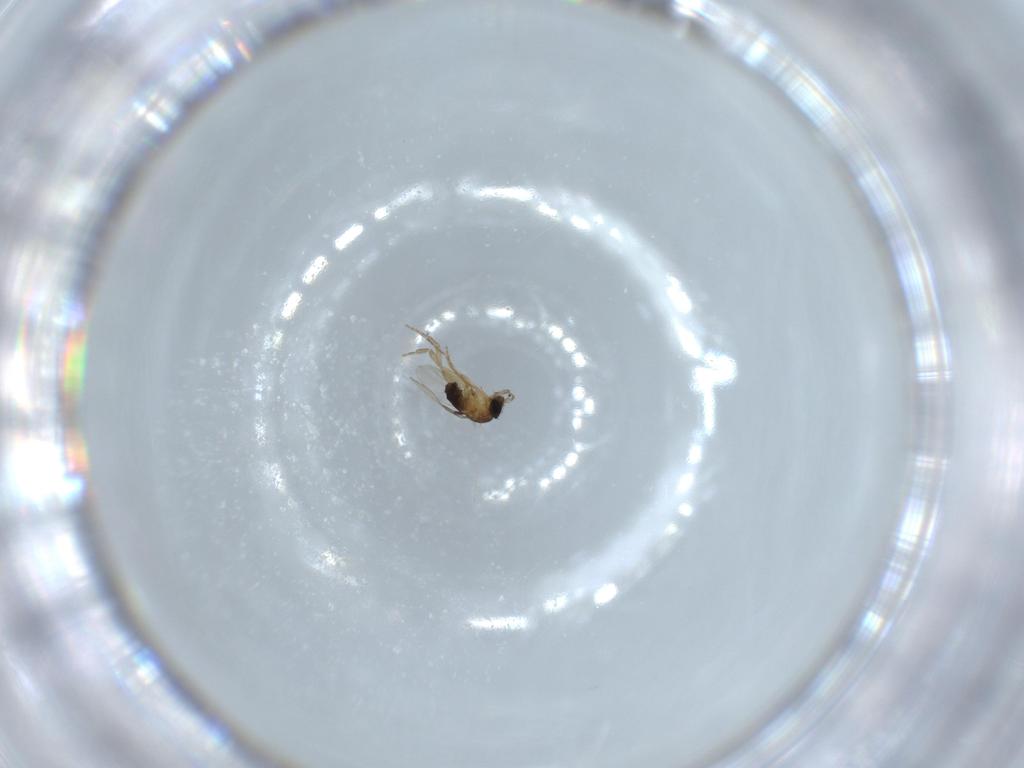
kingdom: Animalia
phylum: Arthropoda
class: Insecta
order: Diptera
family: Phoridae
